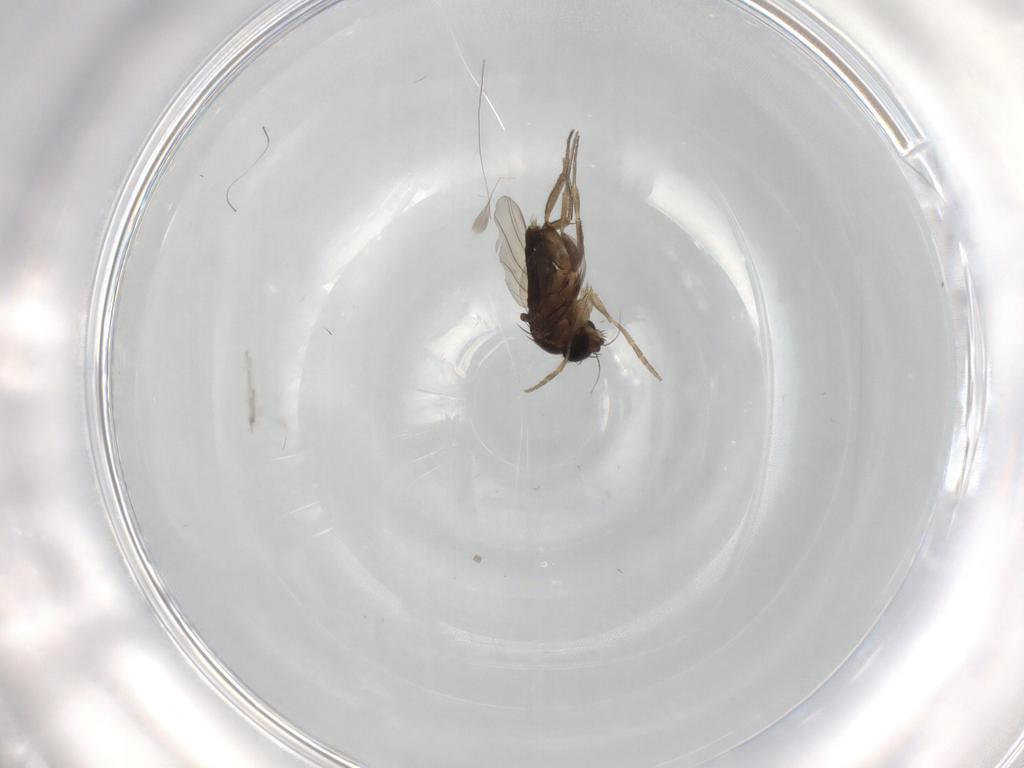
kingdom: Animalia
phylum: Arthropoda
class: Insecta
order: Diptera
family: Phoridae
